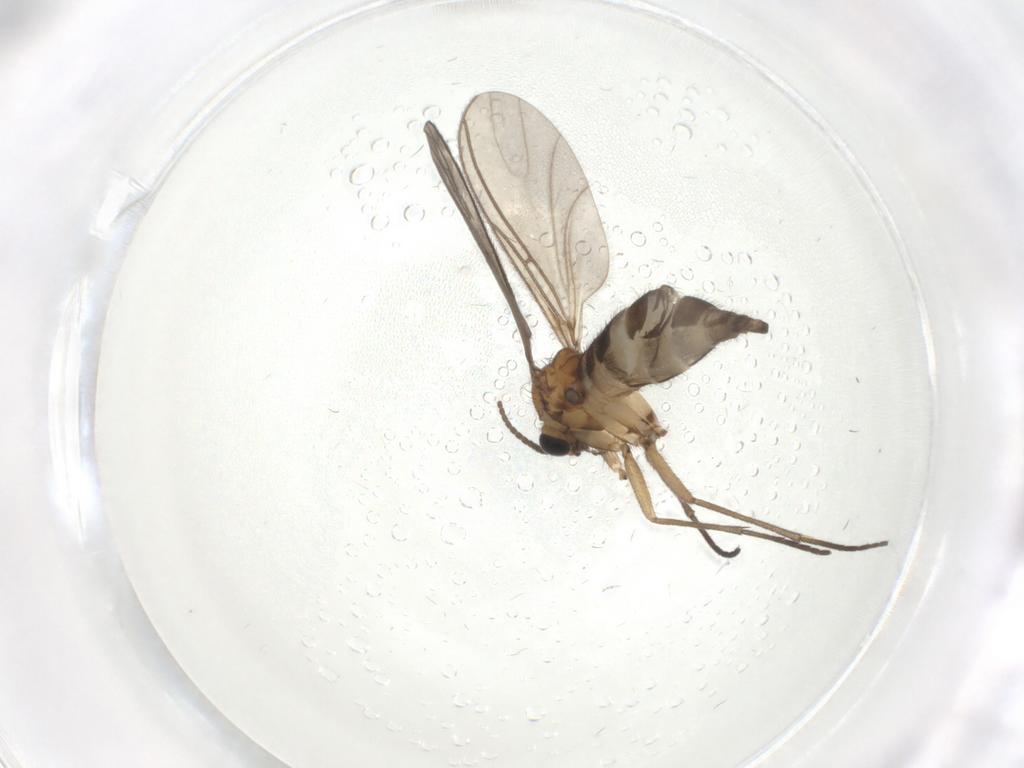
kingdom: Animalia
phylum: Arthropoda
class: Insecta
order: Diptera
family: Sciaridae
